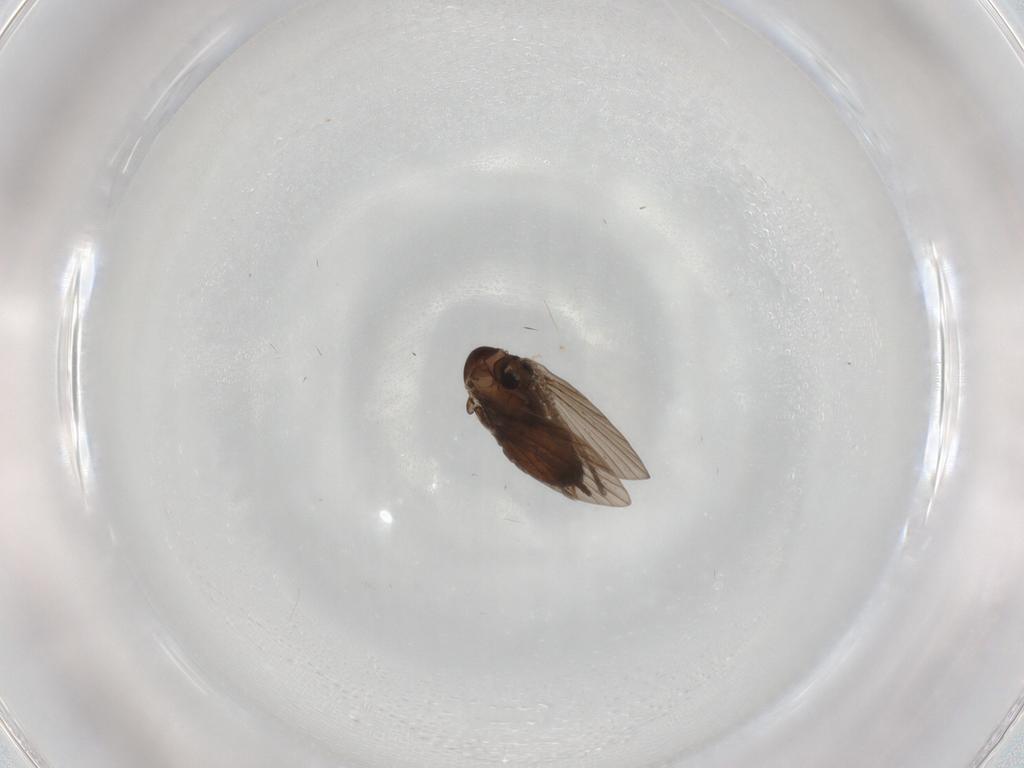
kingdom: Animalia
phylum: Arthropoda
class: Insecta
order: Diptera
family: Psychodidae
